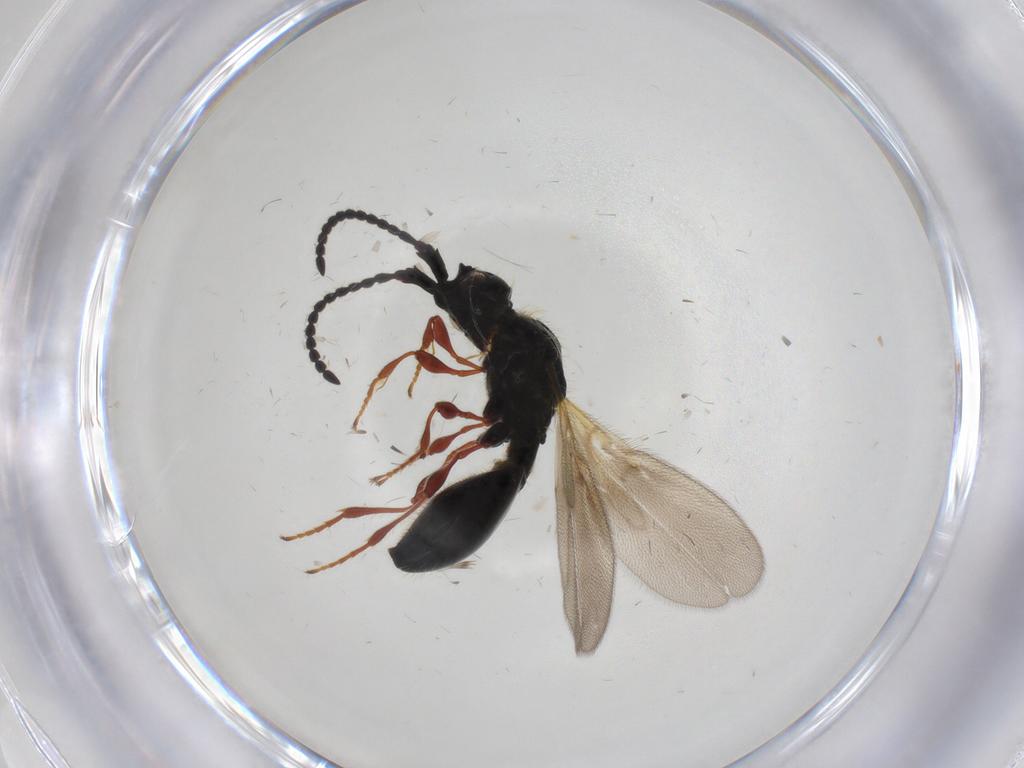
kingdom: Animalia
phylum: Arthropoda
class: Insecta
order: Hymenoptera
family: Diapriidae
